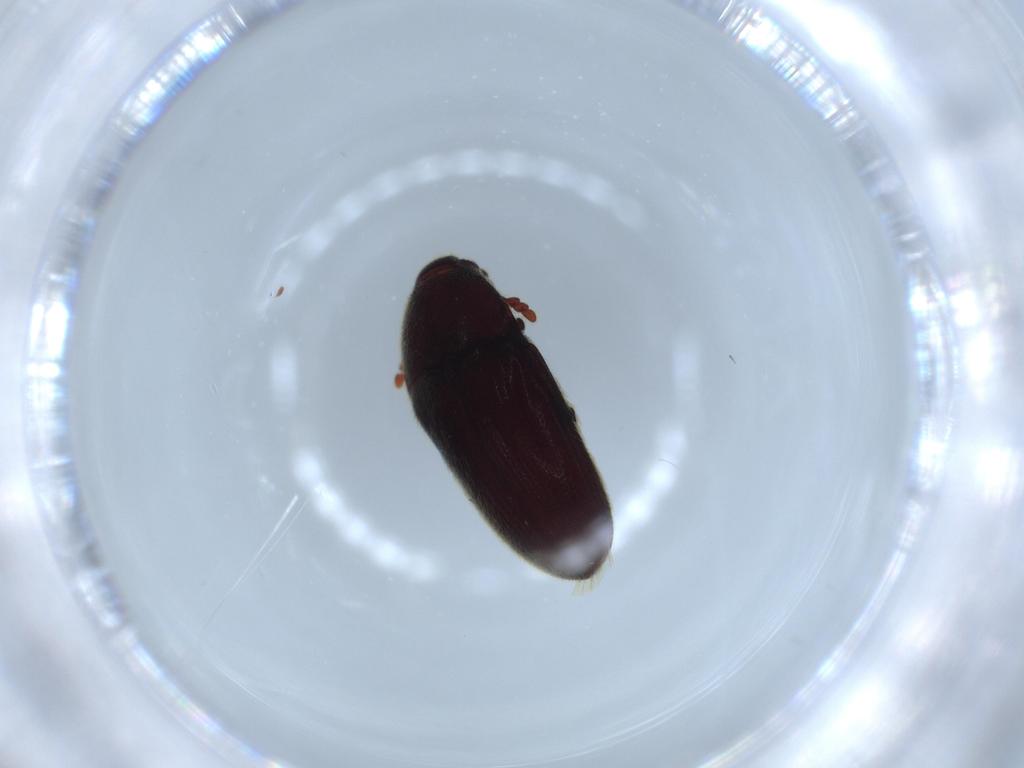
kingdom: Animalia
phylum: Arthropoda
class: Insecta
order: Coleoptera
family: Throscidae
